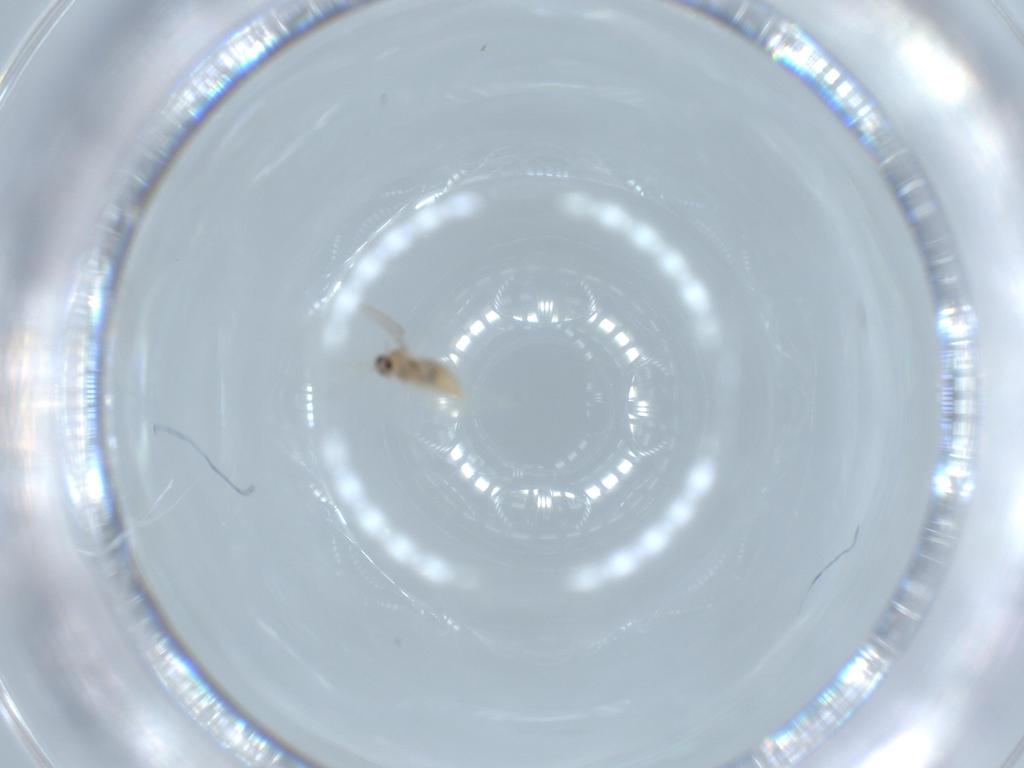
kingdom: Animalia
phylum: Arthropoda
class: Insecta
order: Diptera
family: Cecidomyiidae
